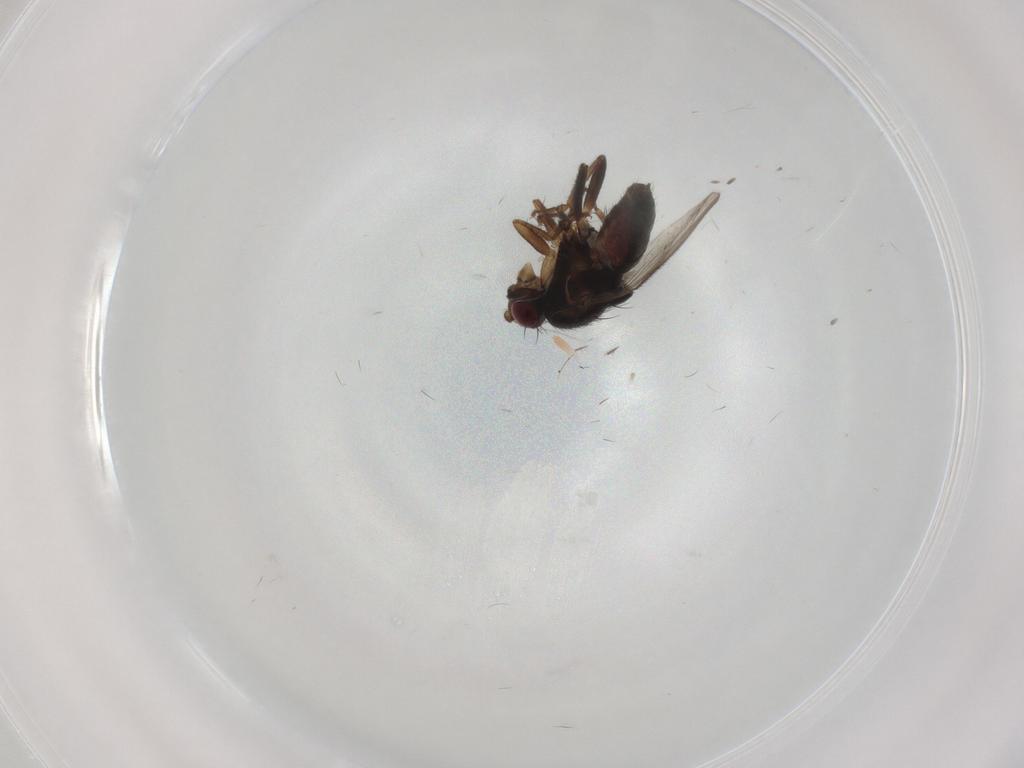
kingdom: Animalia
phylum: Arthropoda
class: Insecta
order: Diptera
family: Sphaeroceridae
